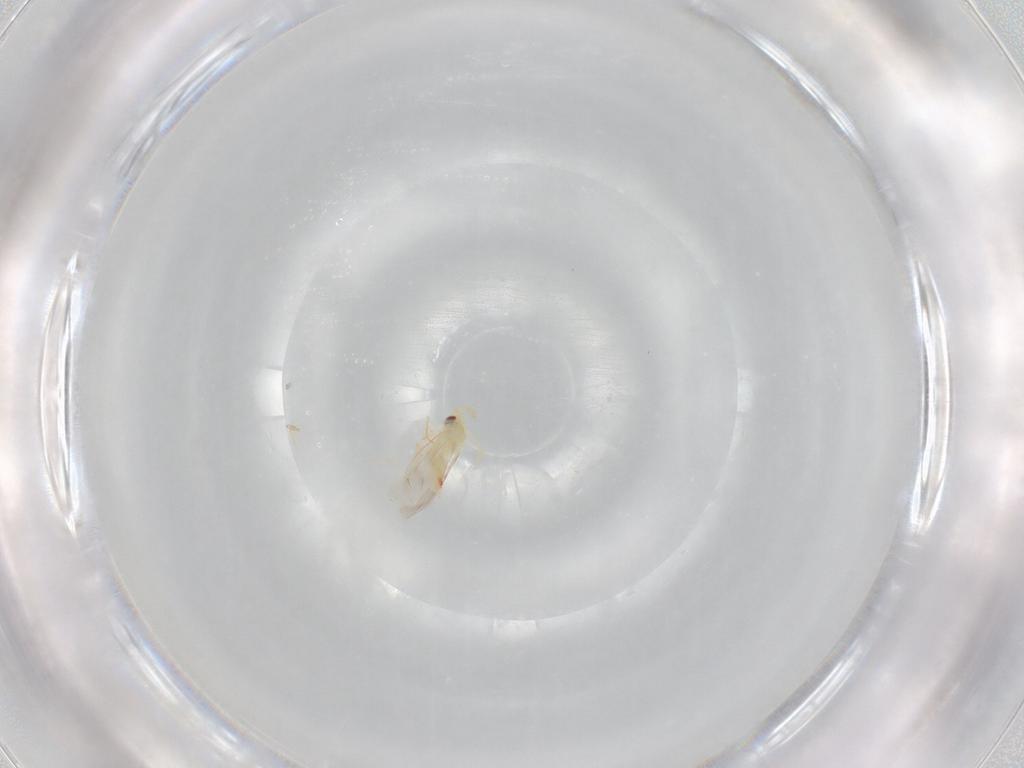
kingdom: Animalia
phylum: Arthropoda
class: Insecta
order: Hemiptera
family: Aleyrodidae
